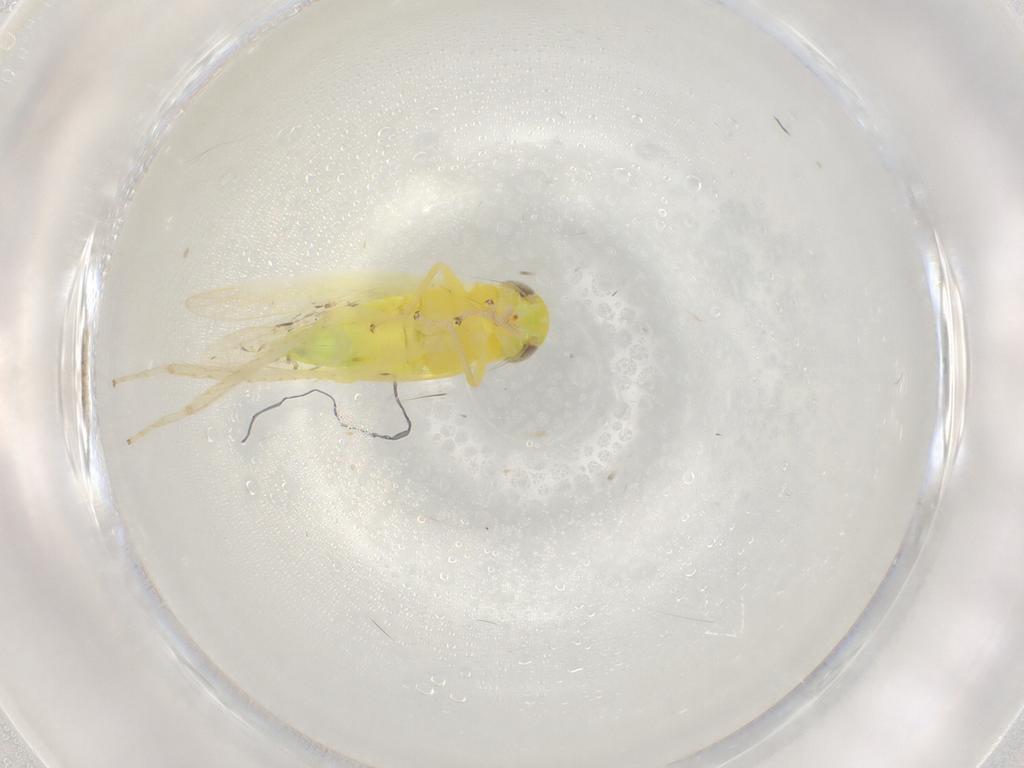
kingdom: Animalia
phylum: Arthropoda
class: Insecta
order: Hemiptera
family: Cicadellidae
